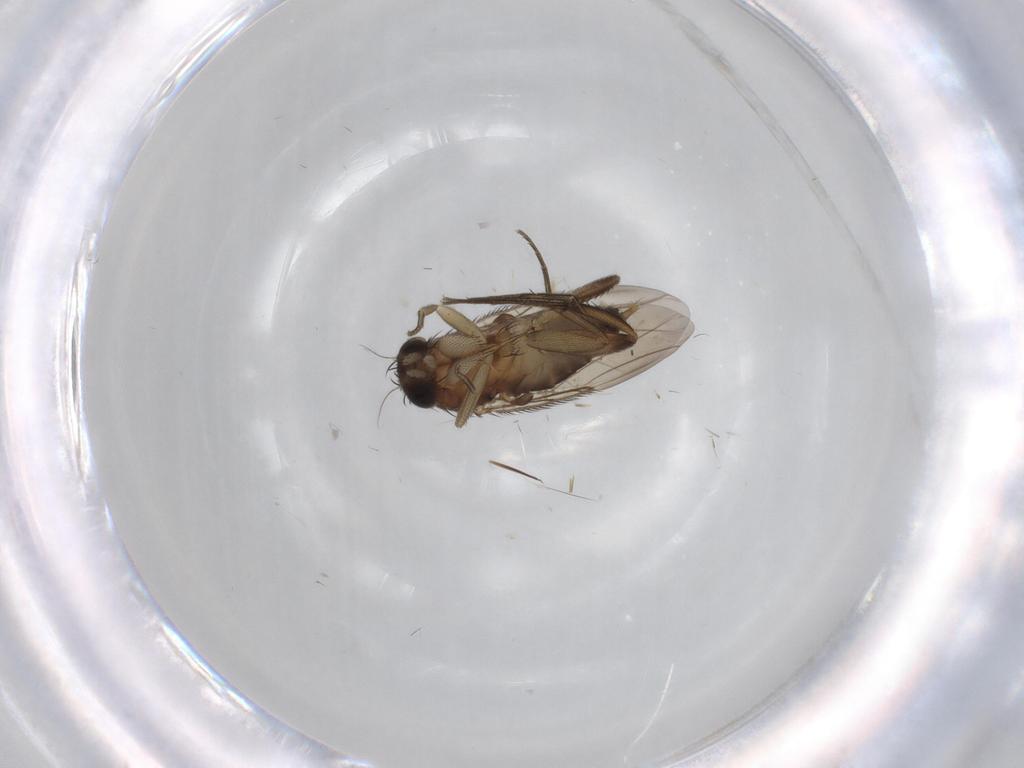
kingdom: Animalia
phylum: Arthropoda
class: Insecta
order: Diptera
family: Phoridae
